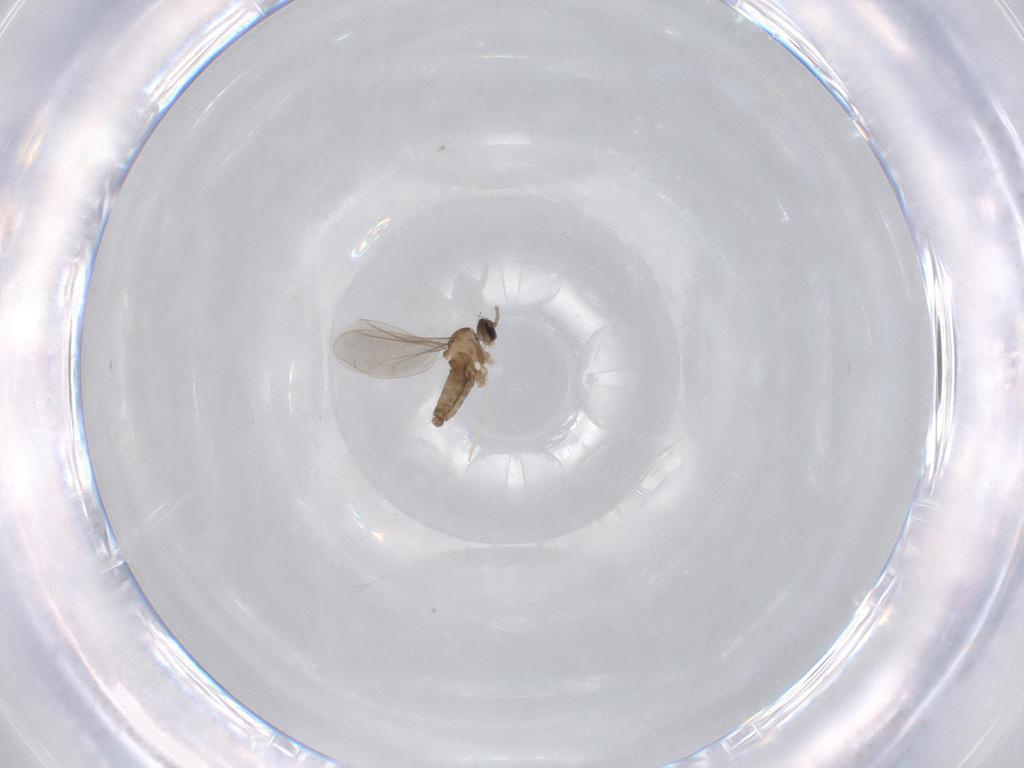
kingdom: Animalia
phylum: Arthropoda
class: Insecta
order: Diptera
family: Cecidomyiidae
